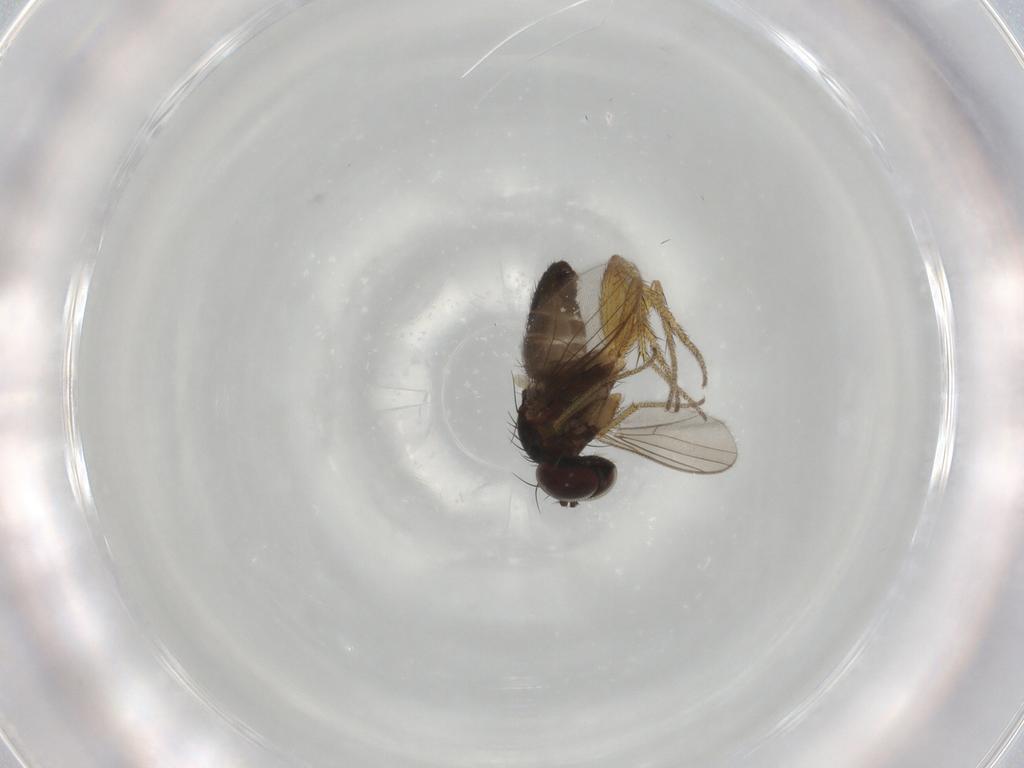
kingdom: Animalia
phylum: Arthropoda
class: Insecta
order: Diptera
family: Dolichopodidae
